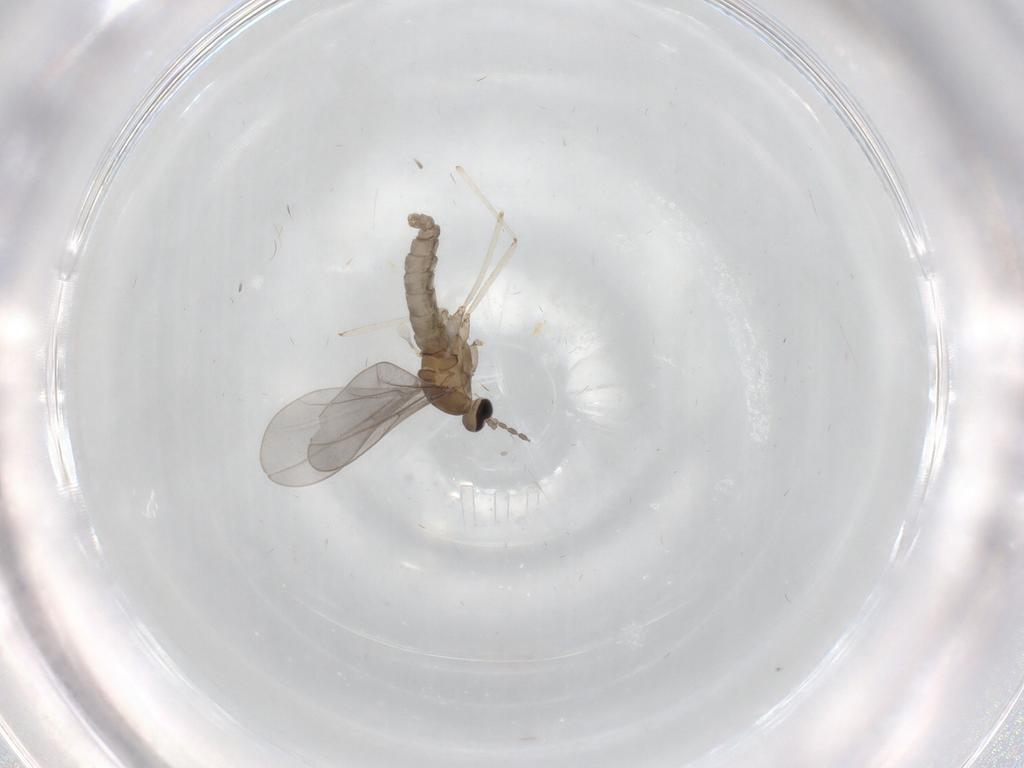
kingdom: Animalia
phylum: Arthropoda
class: Insecta
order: Diptera
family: Cecidomyiidae
